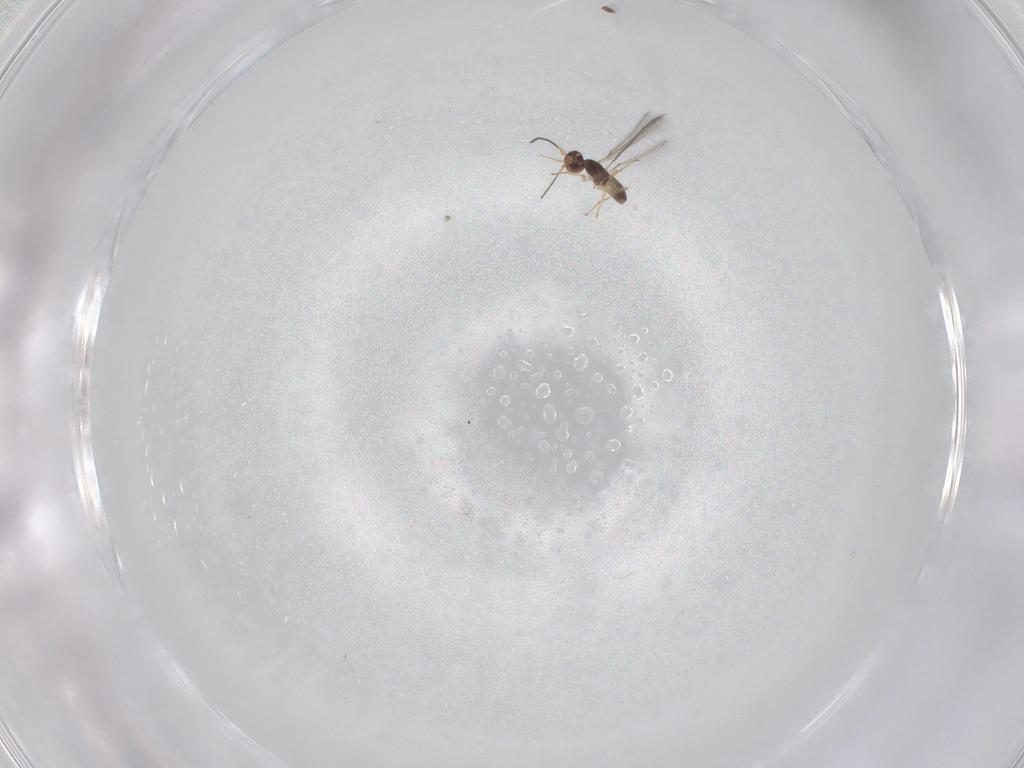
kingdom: Animalia
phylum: Arthropoda
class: Insecta
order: Hymenoptera
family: Mymaridae
